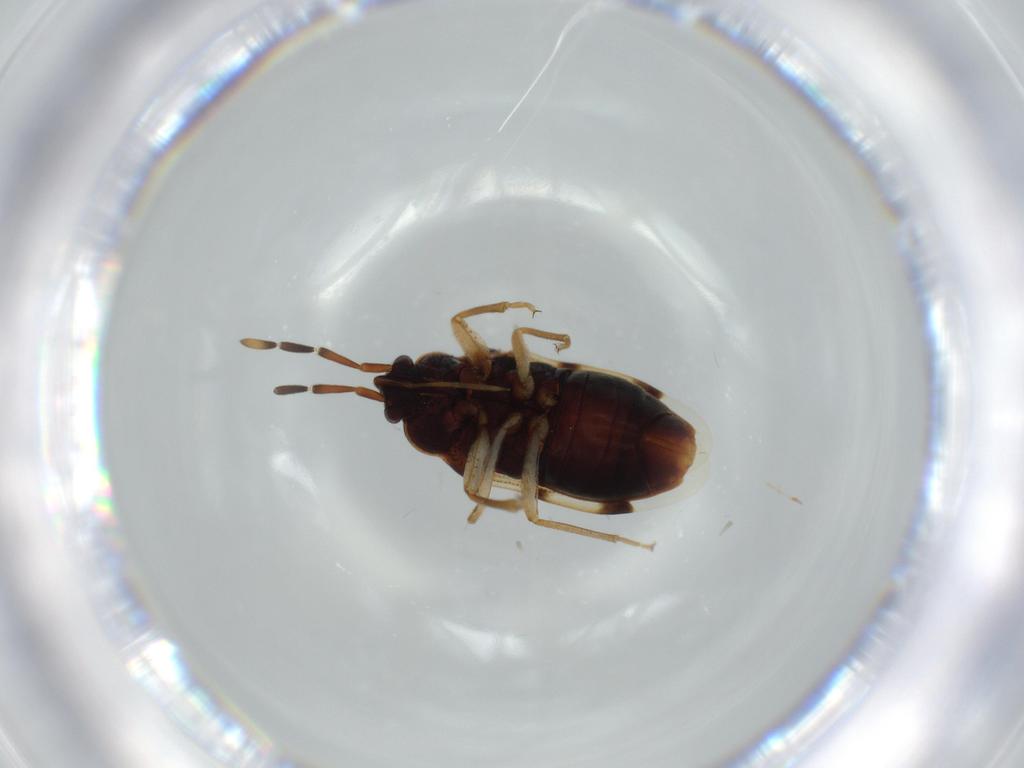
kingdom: Animalia
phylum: Arthropoda
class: Insecta
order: Hemiptera
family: Rhyparochromidae
